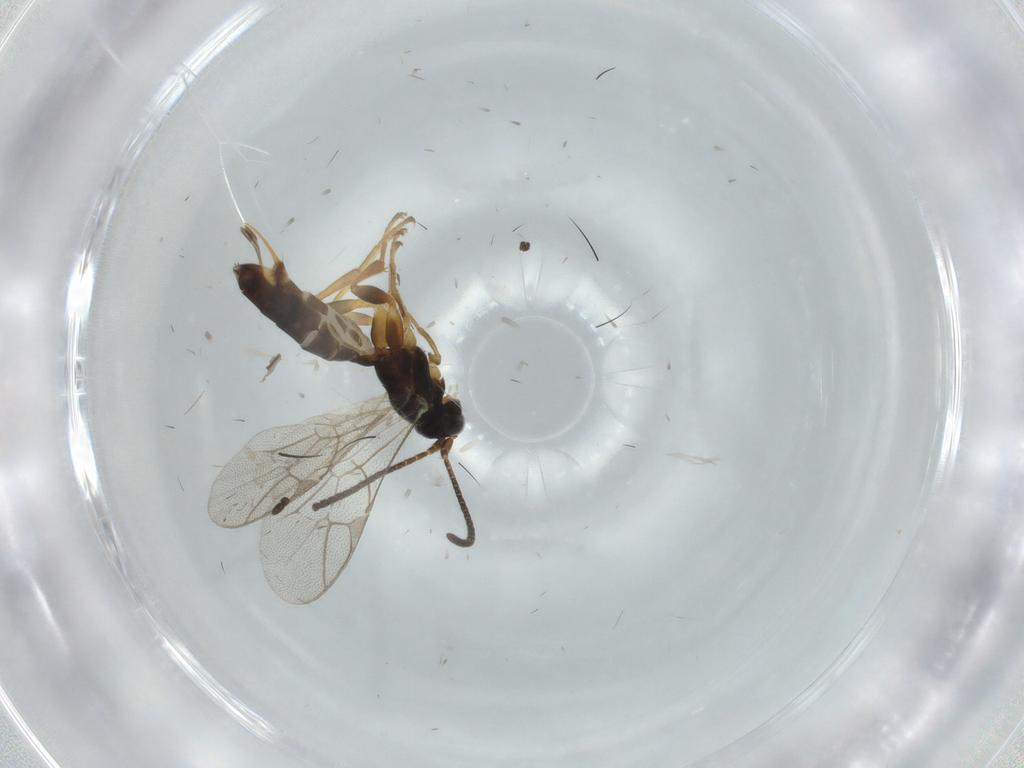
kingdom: Animalia
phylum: Arthropoda
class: Insecta
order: Hymenoptera
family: Ichneumonidae
